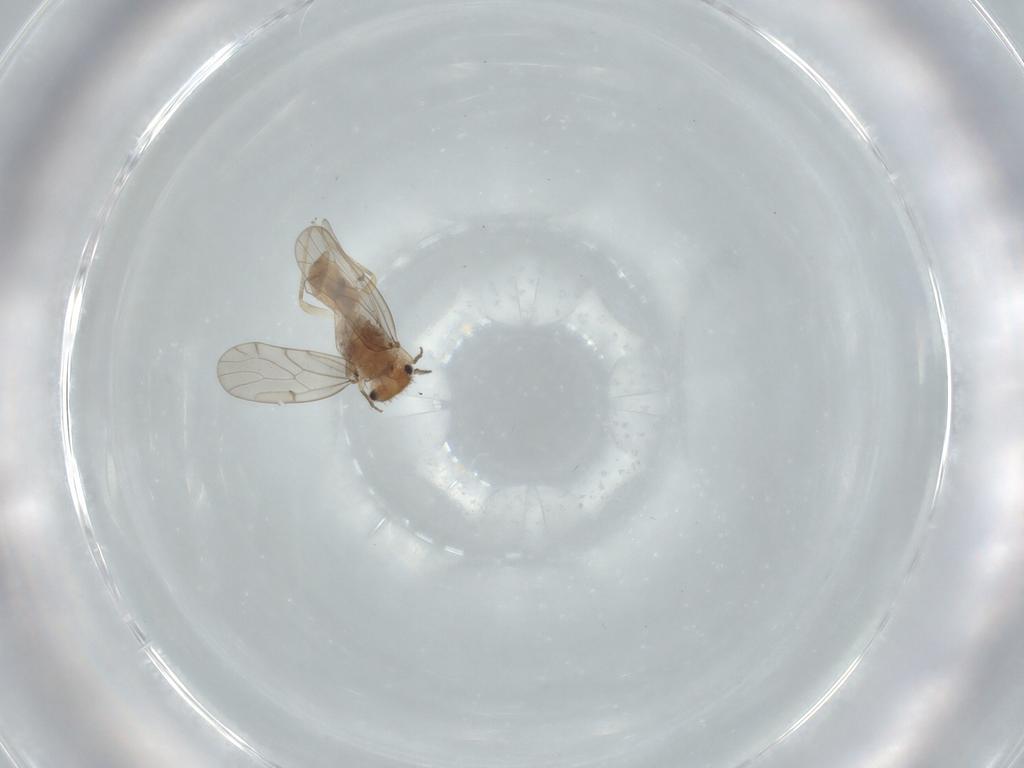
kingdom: Animalia
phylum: Arthropoda
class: Insecta
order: Psocodea
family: Ectopsocidae
